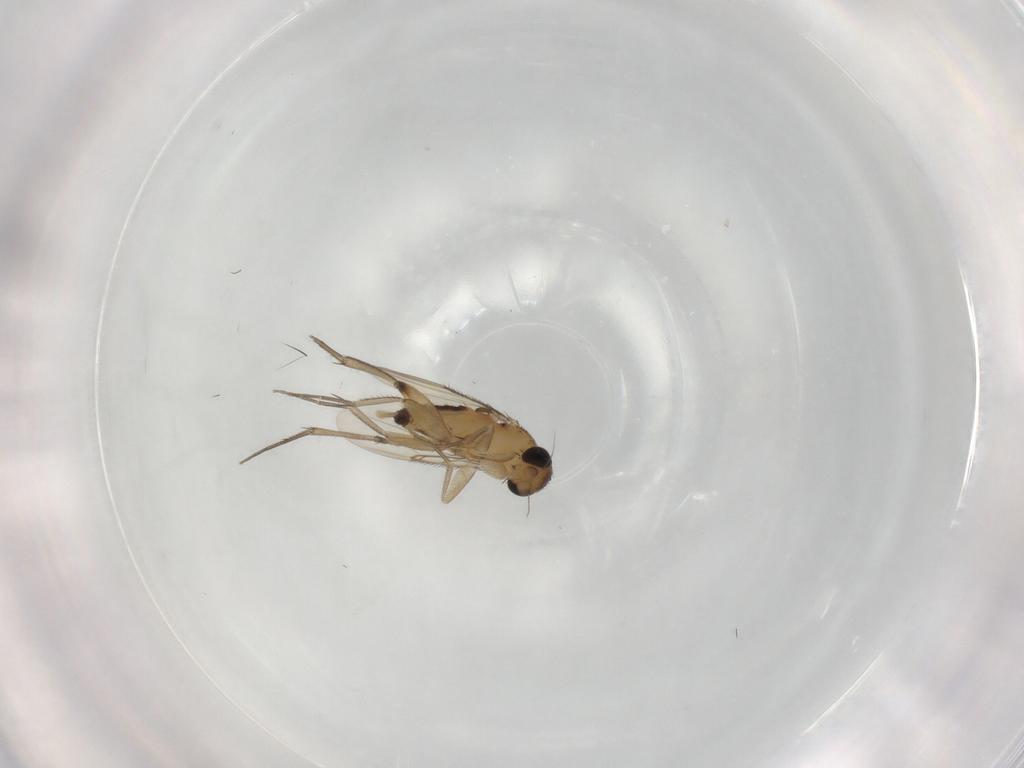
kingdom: Animalia
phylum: Arthropoda
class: Insecta
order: Diptera
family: Phoridae
